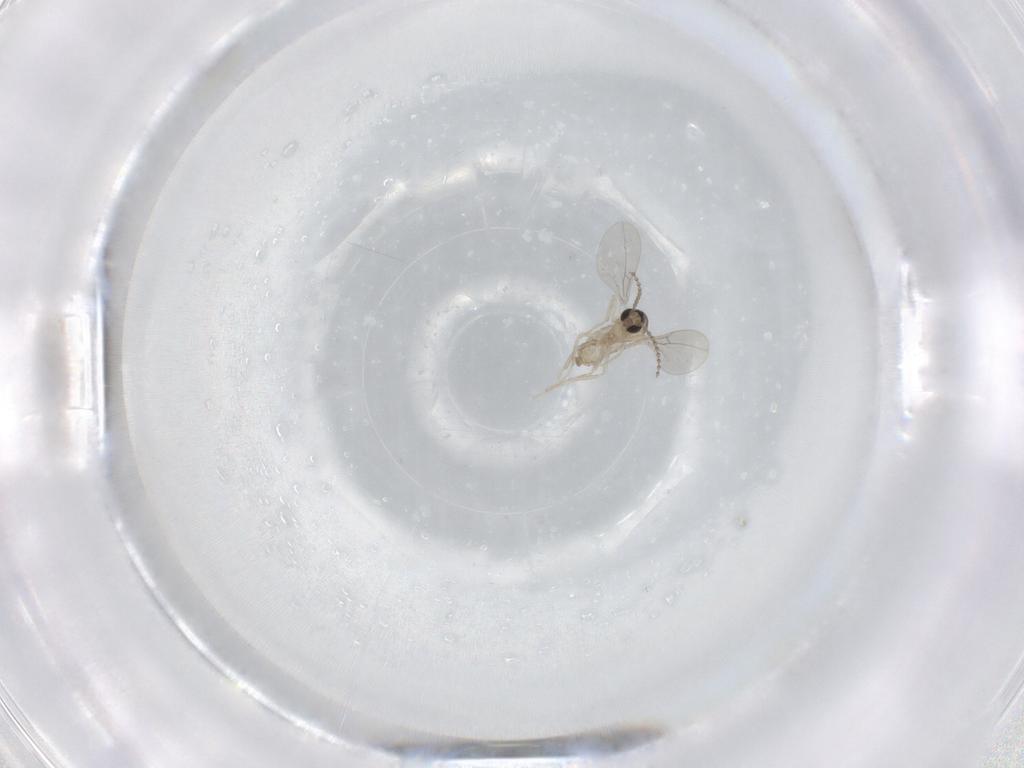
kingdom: Animalia
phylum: Arthropoda
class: Insecta
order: Diptera
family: Cecidomyiidae
